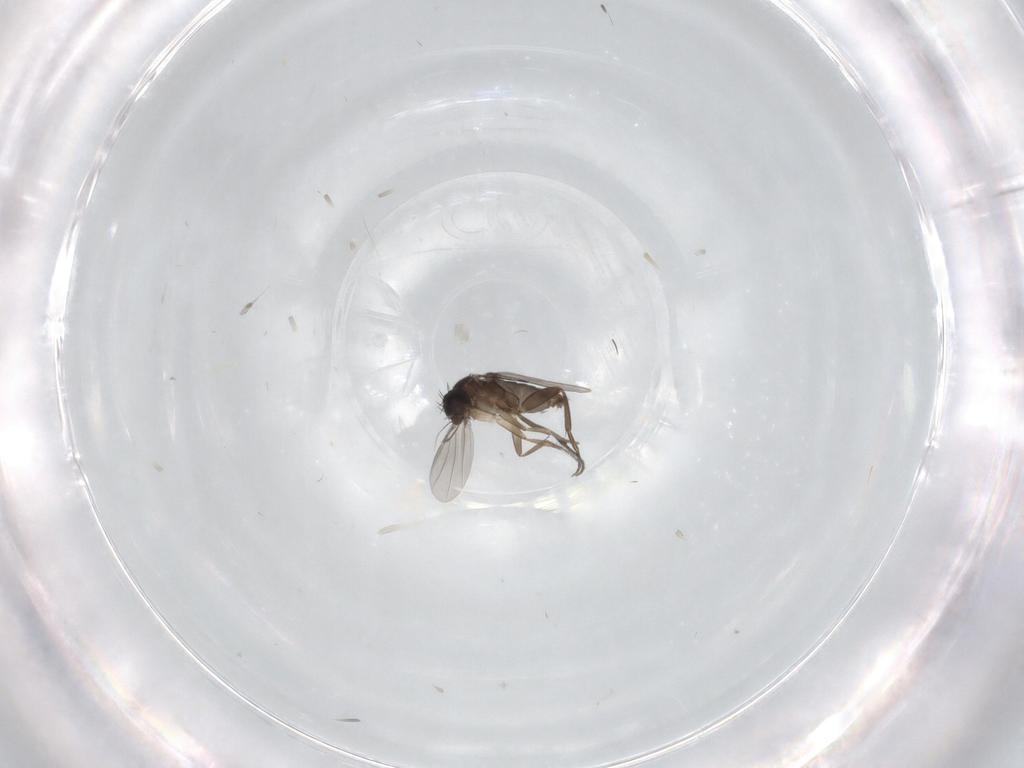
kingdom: Animalia
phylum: Arthropoda
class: Insecta
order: Diptera
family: Phoridae
